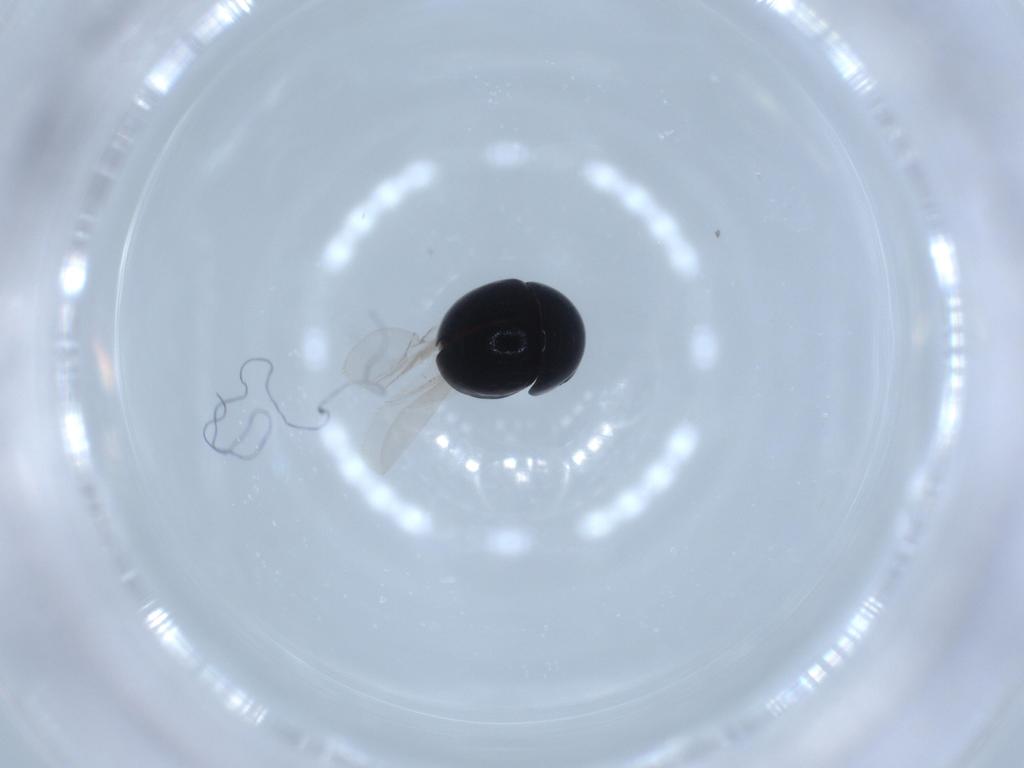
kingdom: Animalia
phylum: Arthropoda
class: Insecta
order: Coleoptera
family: Cybocephalidae
